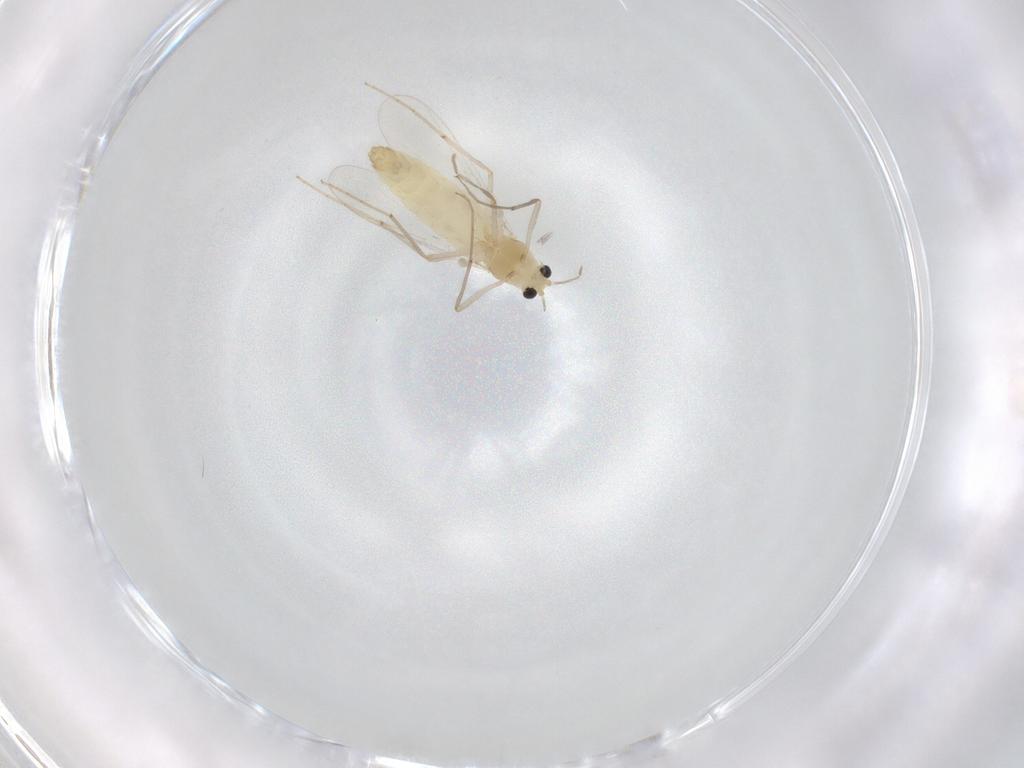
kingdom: Animalia
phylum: Arthropoda
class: Insecta
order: Diptera
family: Chironomidae
